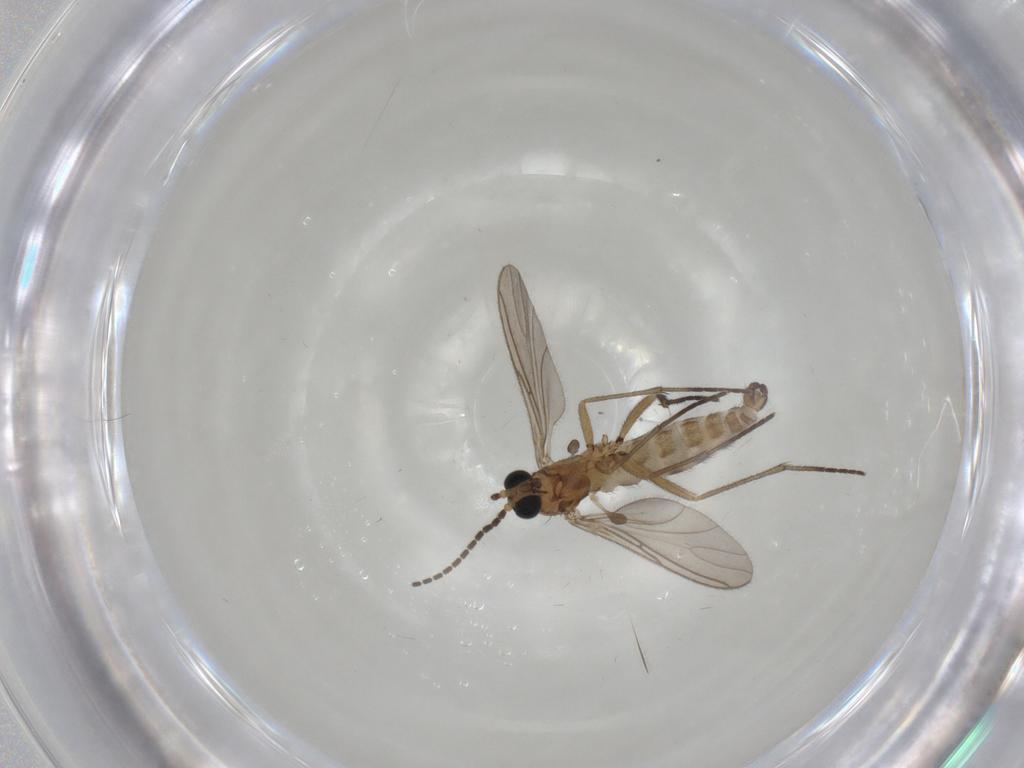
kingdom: Animalia
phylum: Arthropoda
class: Insecta
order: Diptera
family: Sciaridae
